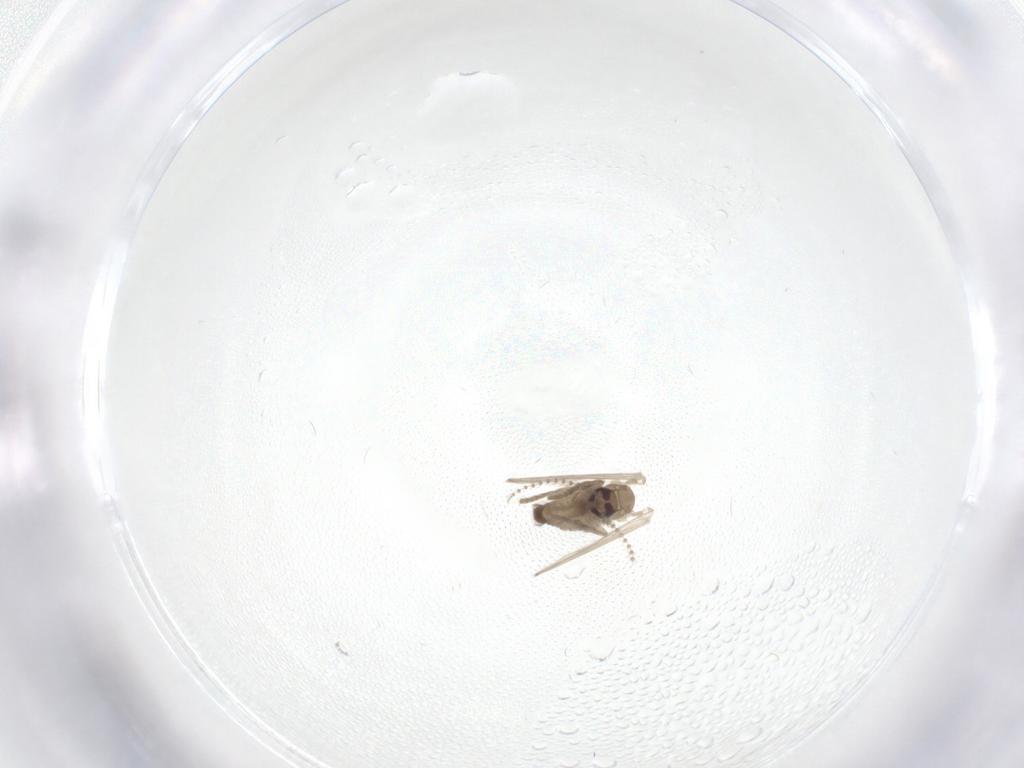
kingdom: Animalia
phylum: Arthropoda
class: Insecta
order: Diptera
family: Psychodidae
